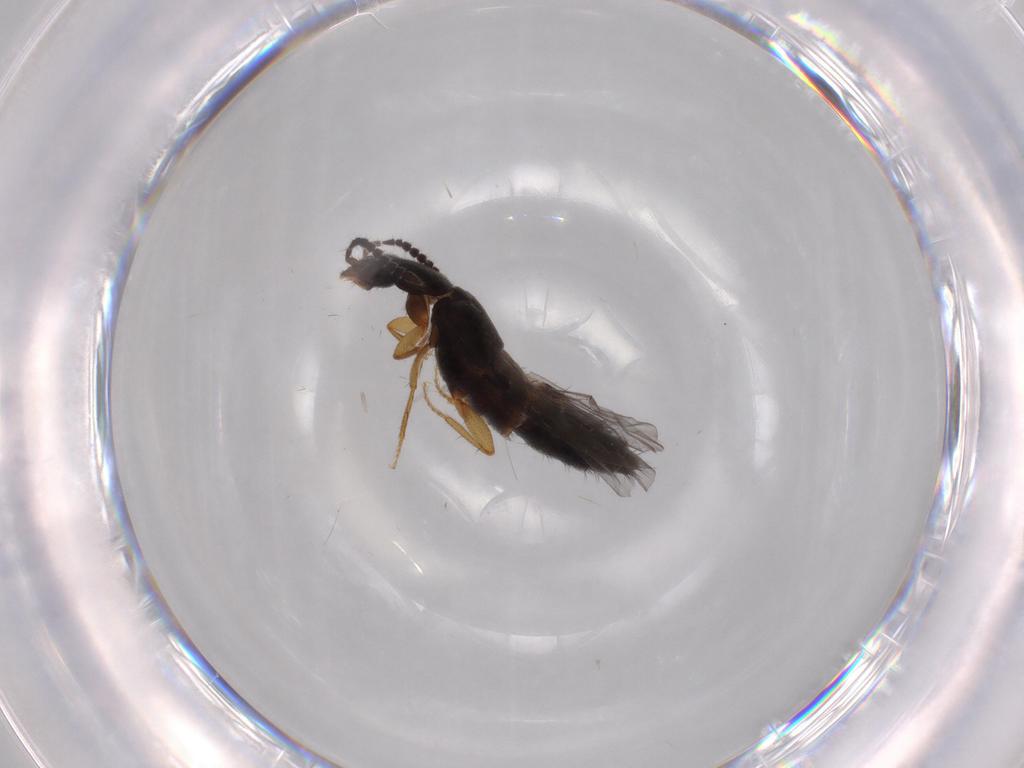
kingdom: Animalia
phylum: Arthropoda
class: Insecta
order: Coleoptera
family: Staphylinidae
